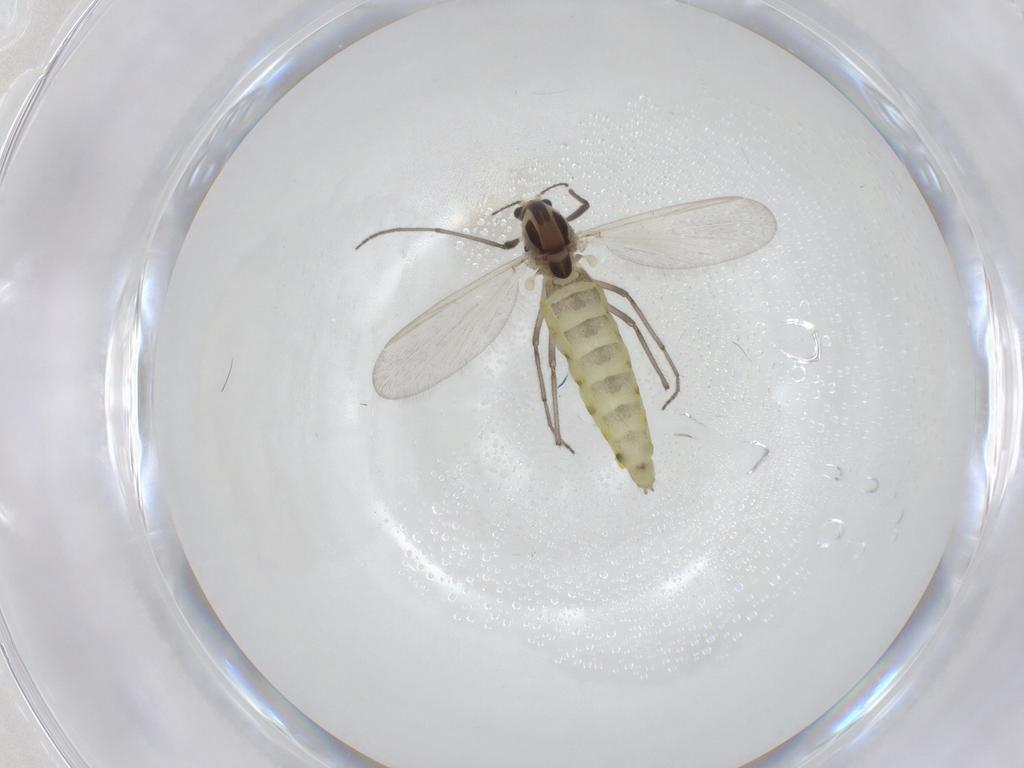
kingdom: Animalia
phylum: Arthropoda
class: Insecta
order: Diptera
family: Chironomidae
